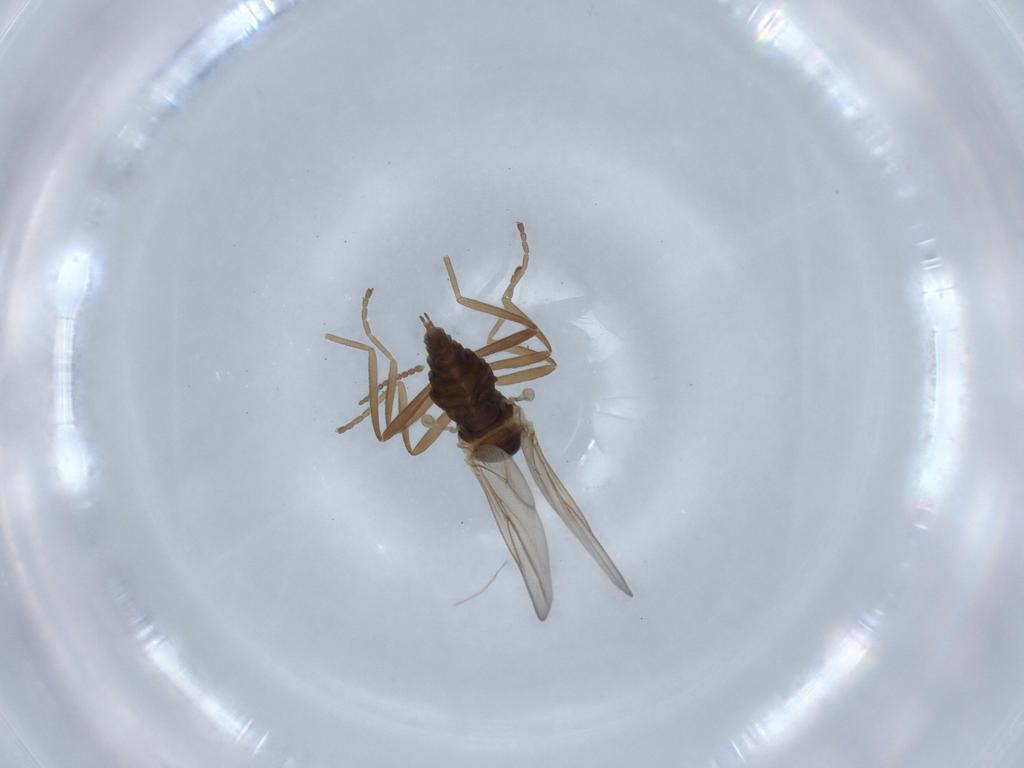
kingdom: Animalia
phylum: Arthropoda
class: Insecta
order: Diptera
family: Cecidomyiidae
